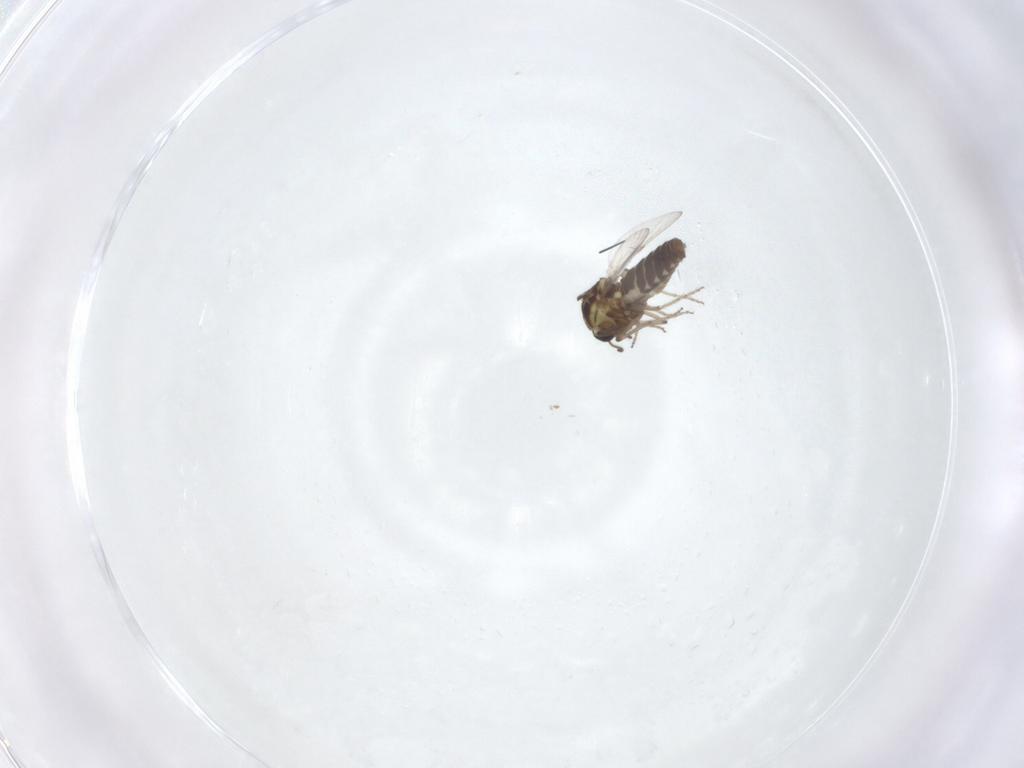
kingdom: Animalia
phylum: Arthropoda
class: Insecta
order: Diptera
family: Ceratopogonidae
